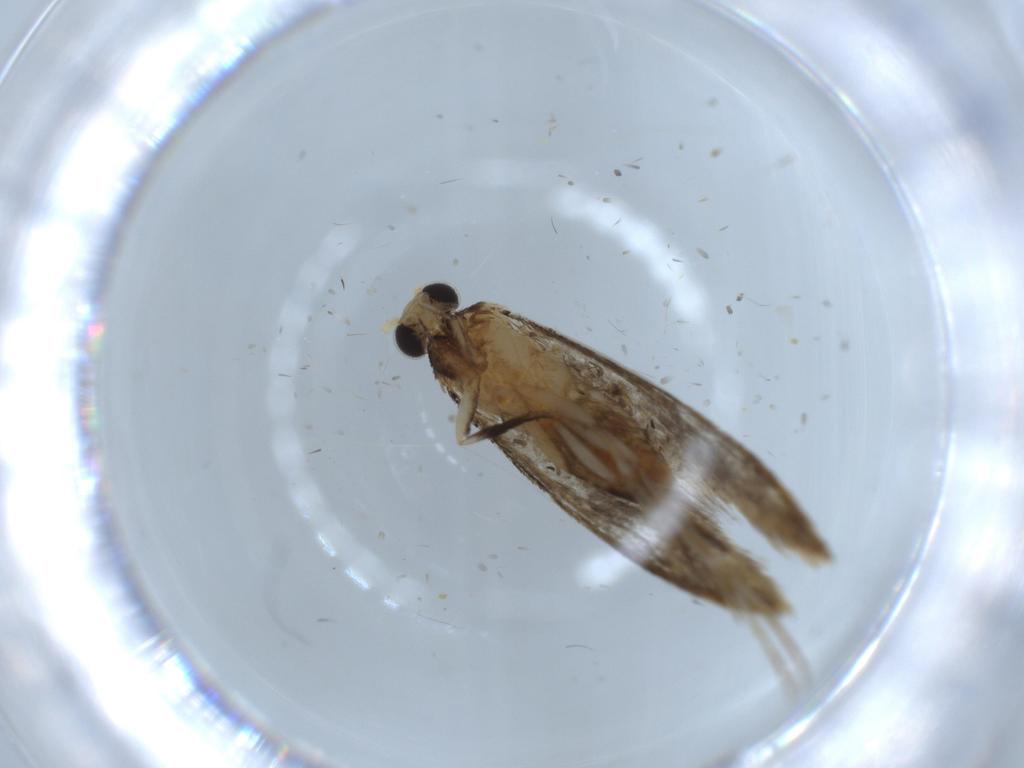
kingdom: Animalia
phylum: Arthropoda
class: Insecta
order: Lepidoptera
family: Tineidae
